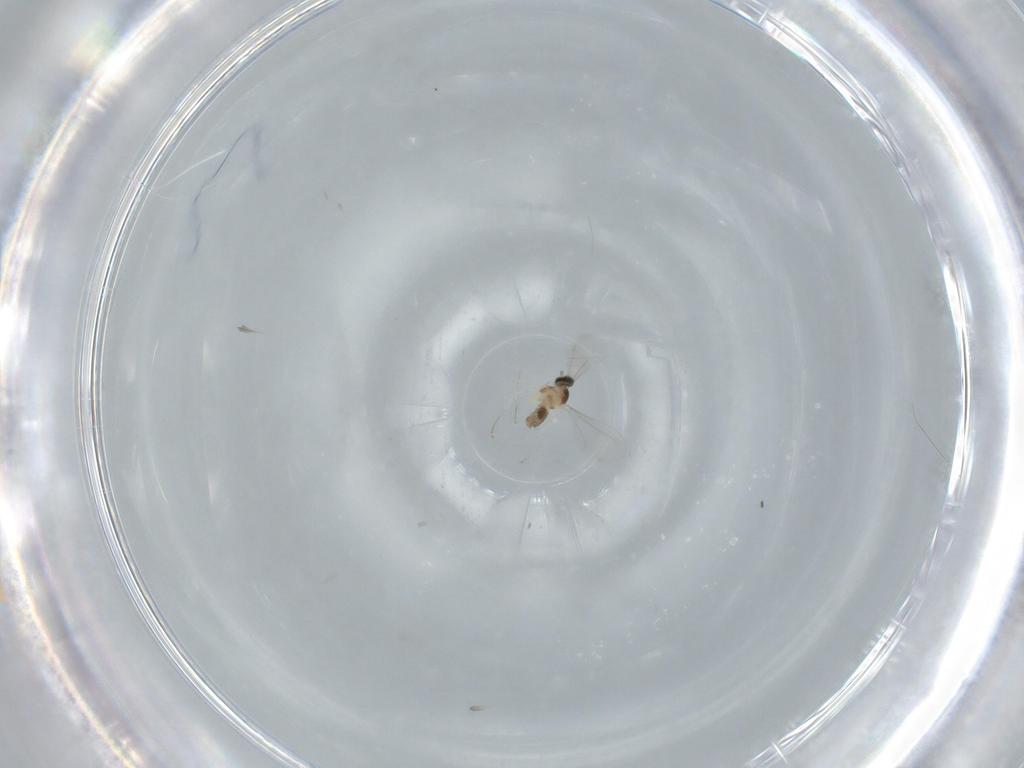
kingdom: Animalia
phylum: Arthropoda
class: Insecta
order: Diptera
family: Cecidomyiidae
